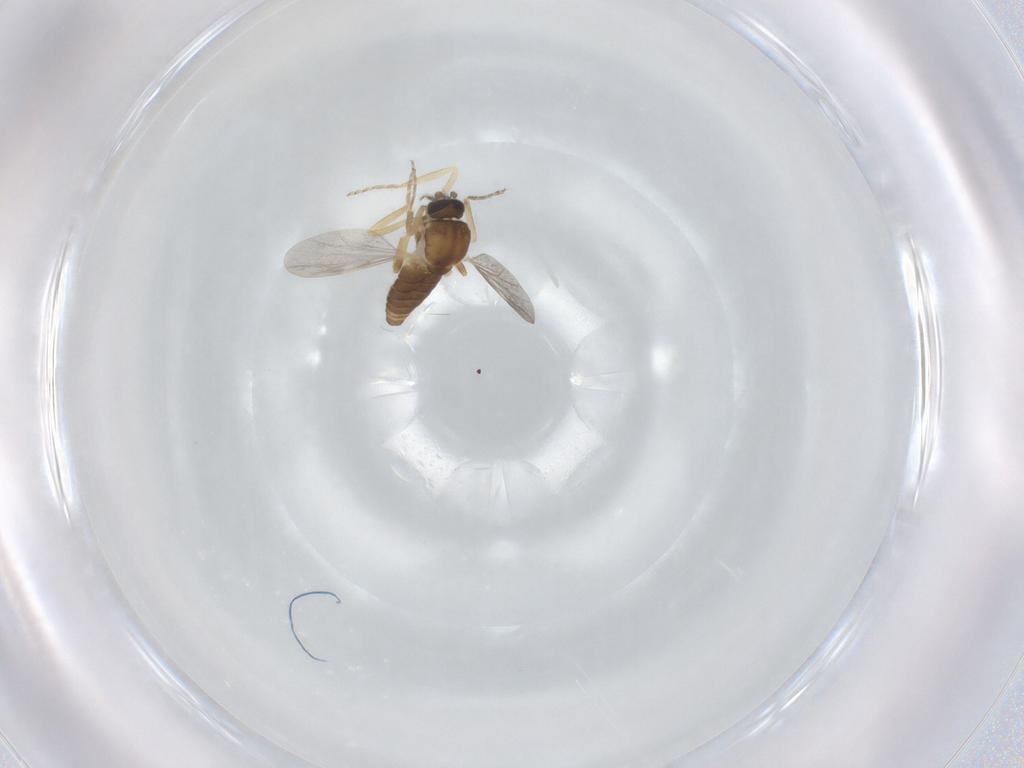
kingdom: Animalia
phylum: Arthropoda
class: Insecta
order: Diptera
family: Ceratopogonidae
